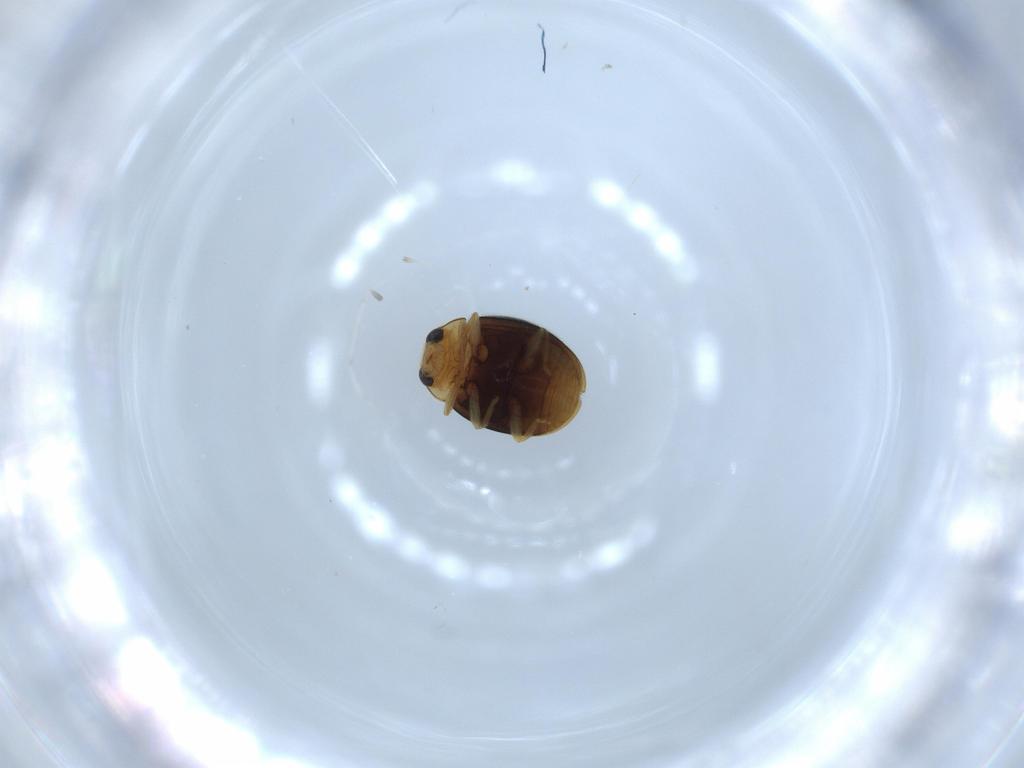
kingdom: Animalia
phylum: Arthropoda
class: Insecta
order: Coleoptera
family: Coccinellidae
